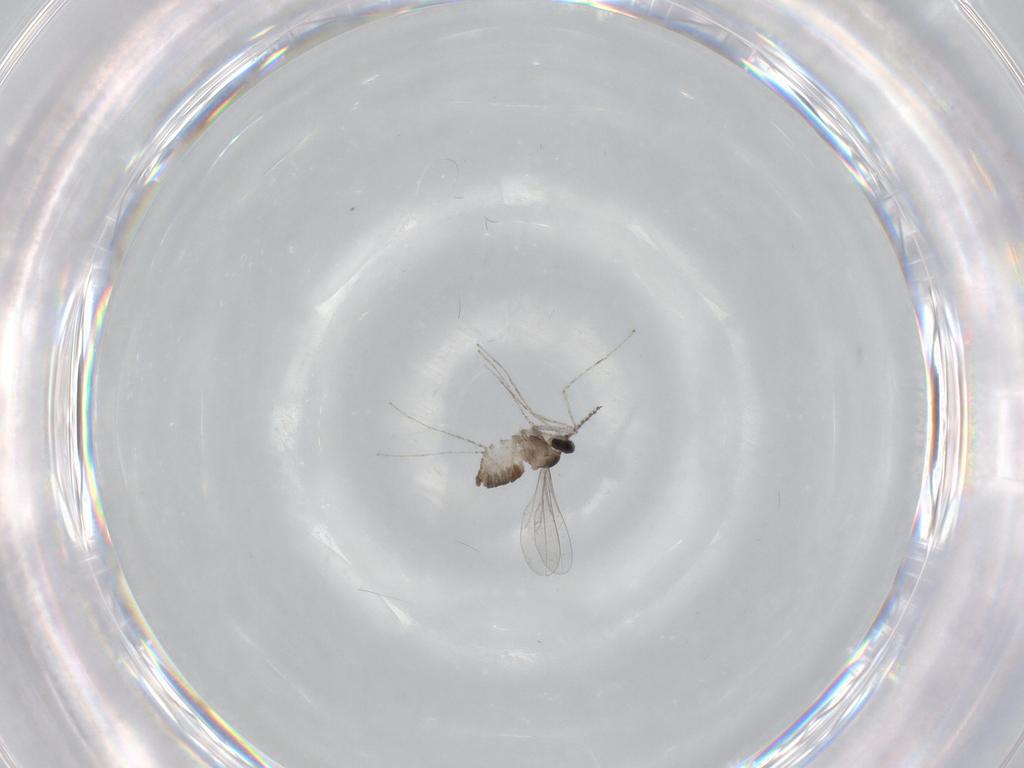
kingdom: Animalia
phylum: Arthropoda
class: Insecta
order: Diptera
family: Cecidomyiidae
